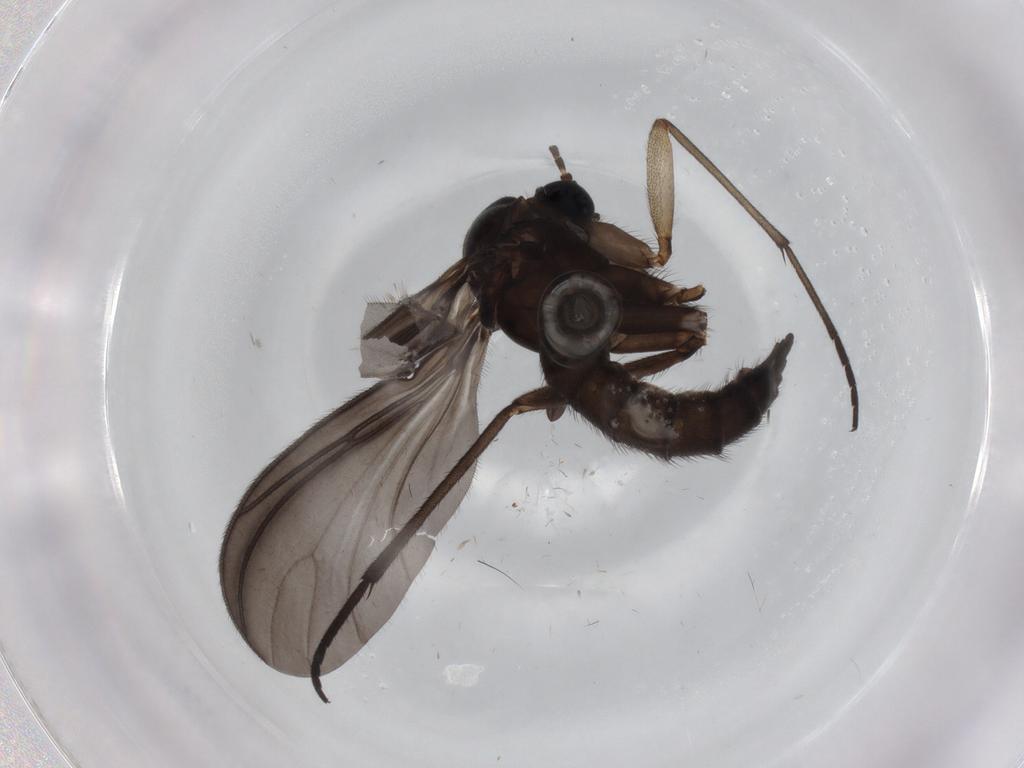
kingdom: Animalia
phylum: Arthropoda
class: Insecta
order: Diptera
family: Sciaridae
